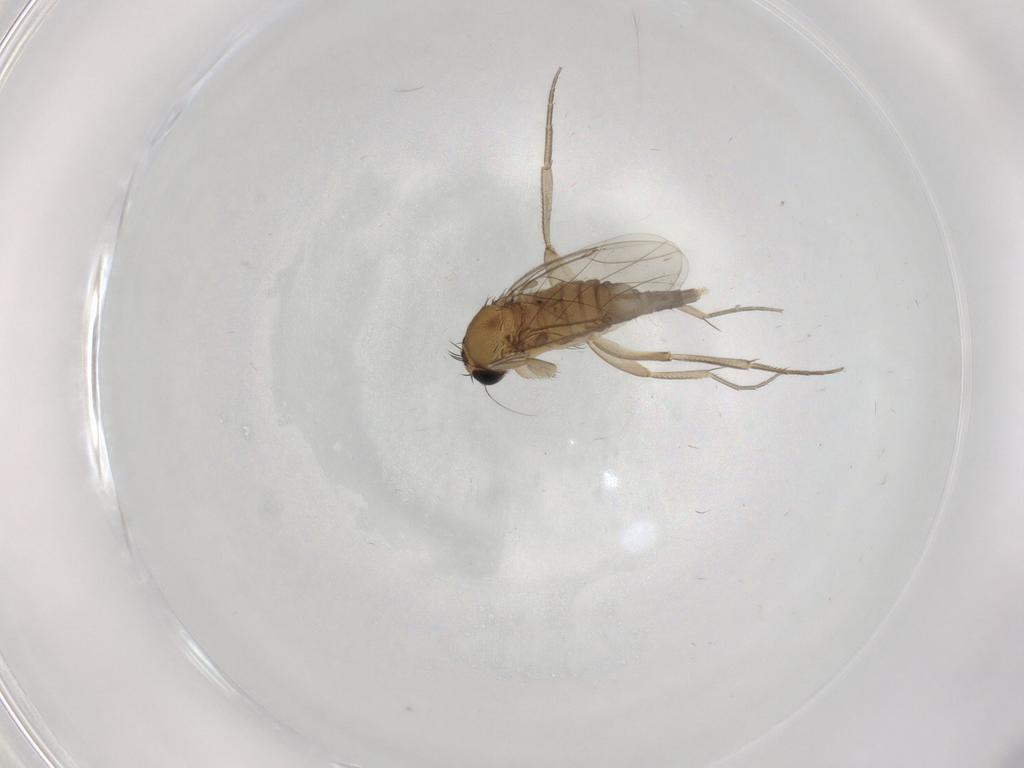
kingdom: Animalia
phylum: Arthropoda
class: Insecta
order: Diptera
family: Phoridae
